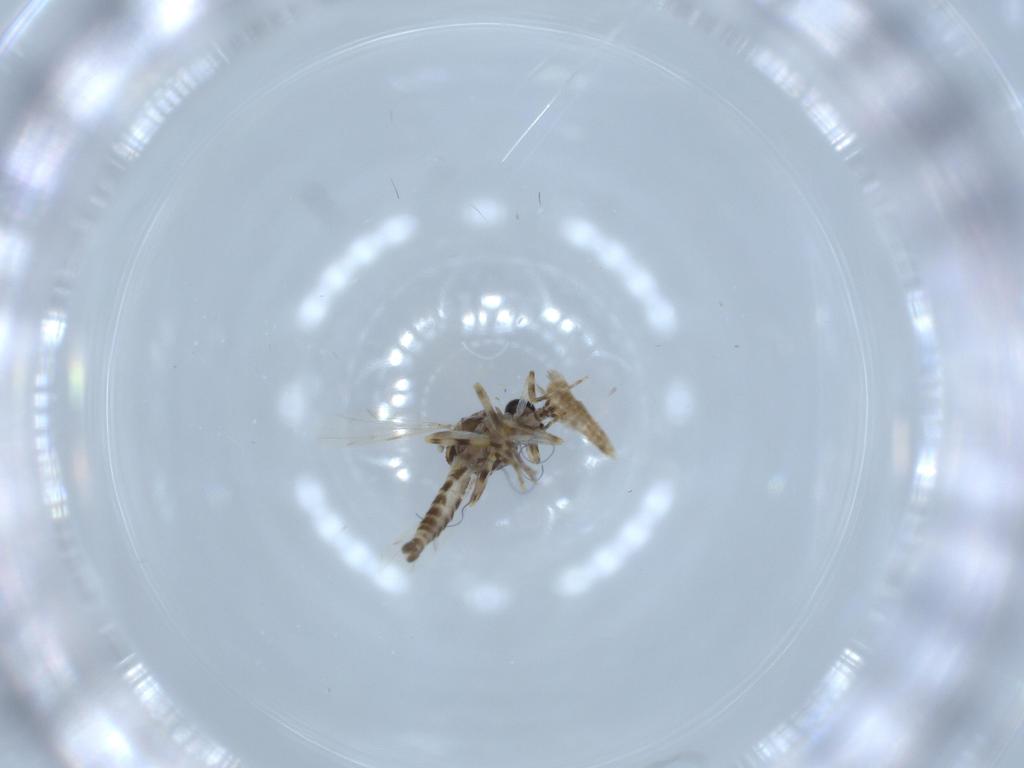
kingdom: Animalia
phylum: Arthropoda
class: Insecta
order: Diptera
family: Ceratopogonidae
